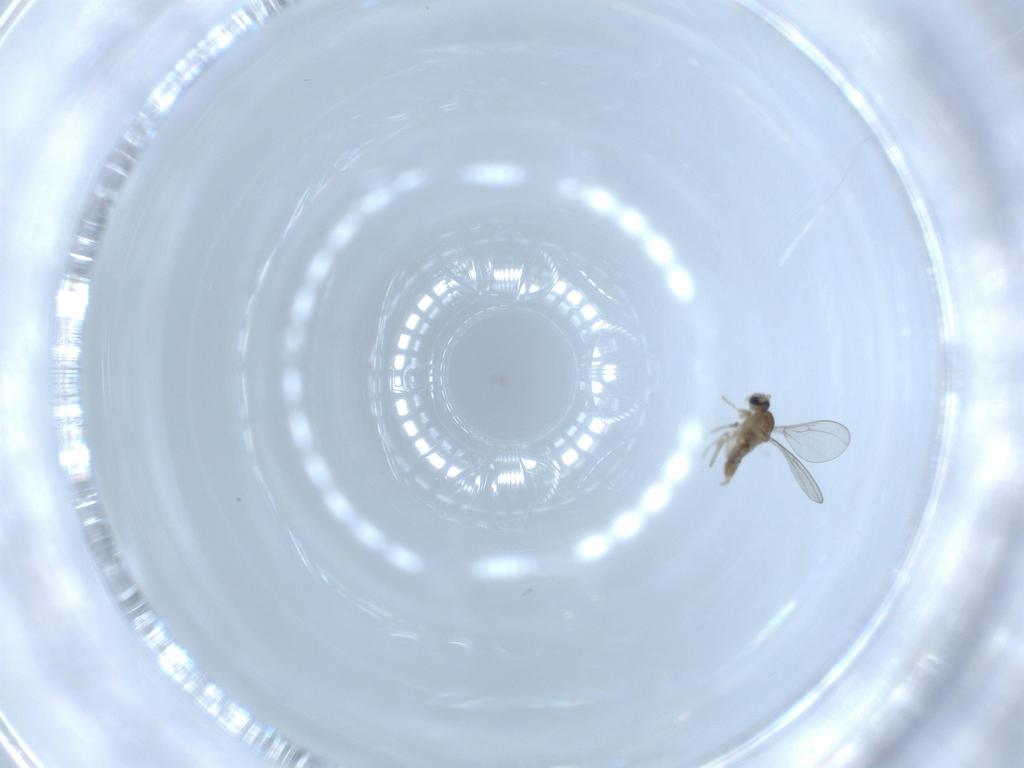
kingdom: Animalia
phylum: Arthropoda
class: Insecta
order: Diptera
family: Cecidomyiidae
